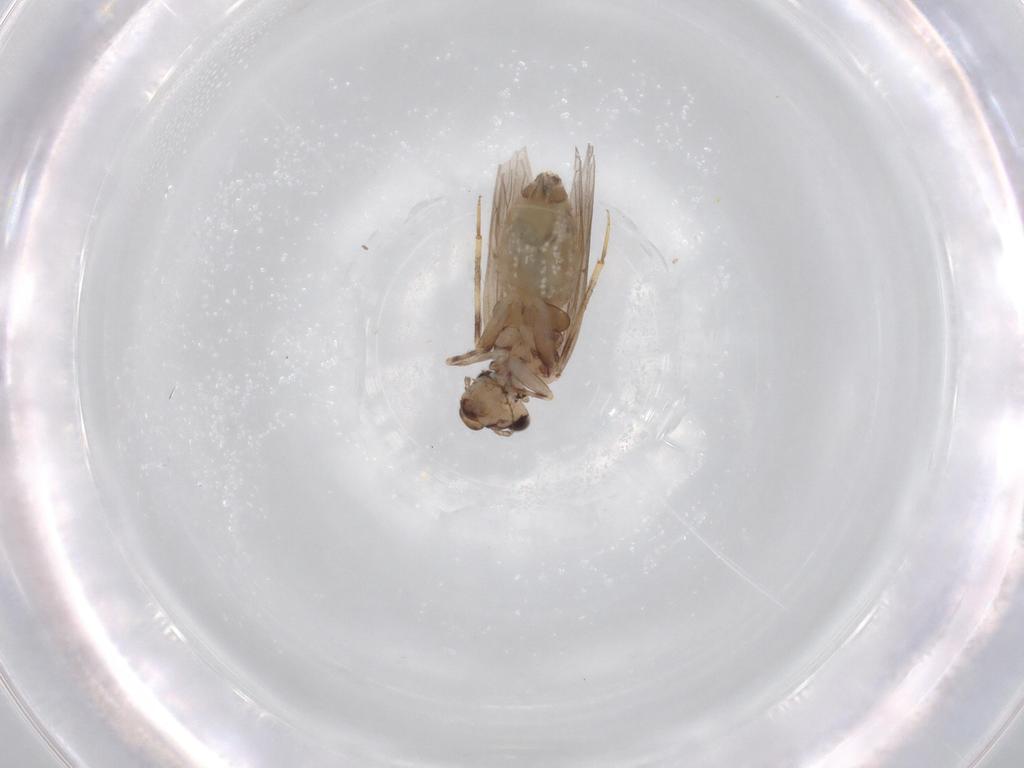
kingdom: Animalia
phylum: Arthropoda
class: Insecta
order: Psocodea
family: Lepidopsocidae
